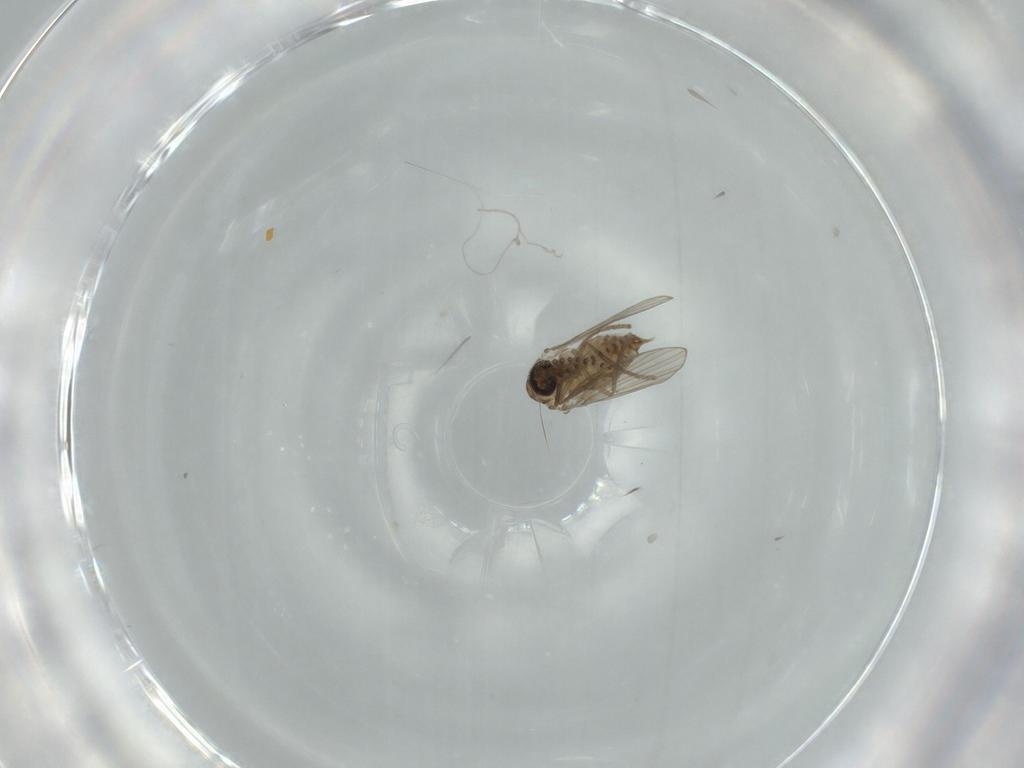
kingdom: Animalia
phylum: Arthropoda
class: Insecta
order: Diptera
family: Psychodidae
